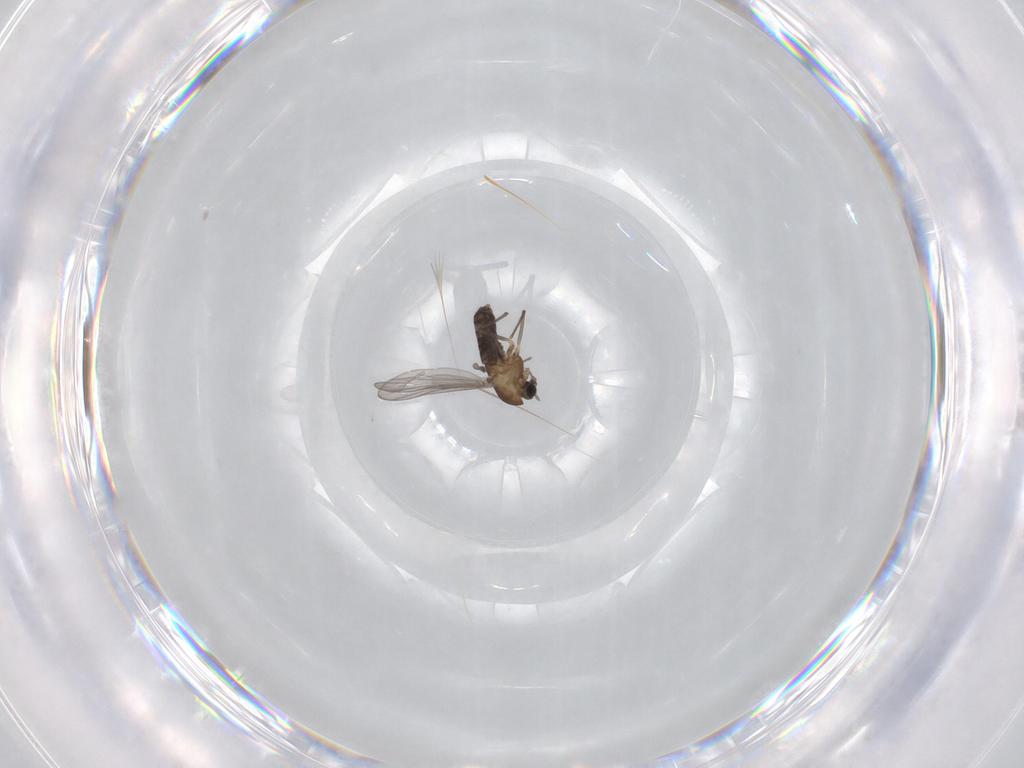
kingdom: Animalia
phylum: Arthropoda
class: Insecta
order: Diptera
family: Chironomidae
